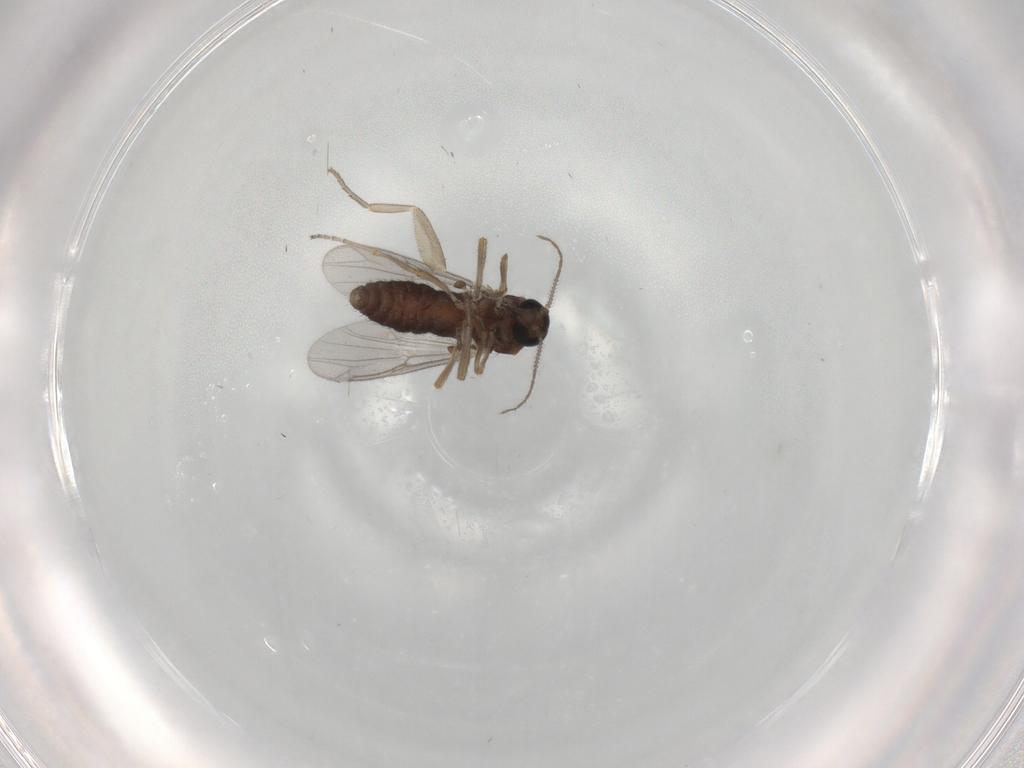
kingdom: Animalia
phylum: Arthropoda
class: Insecta
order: Diptera
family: Ceratopogonidae
